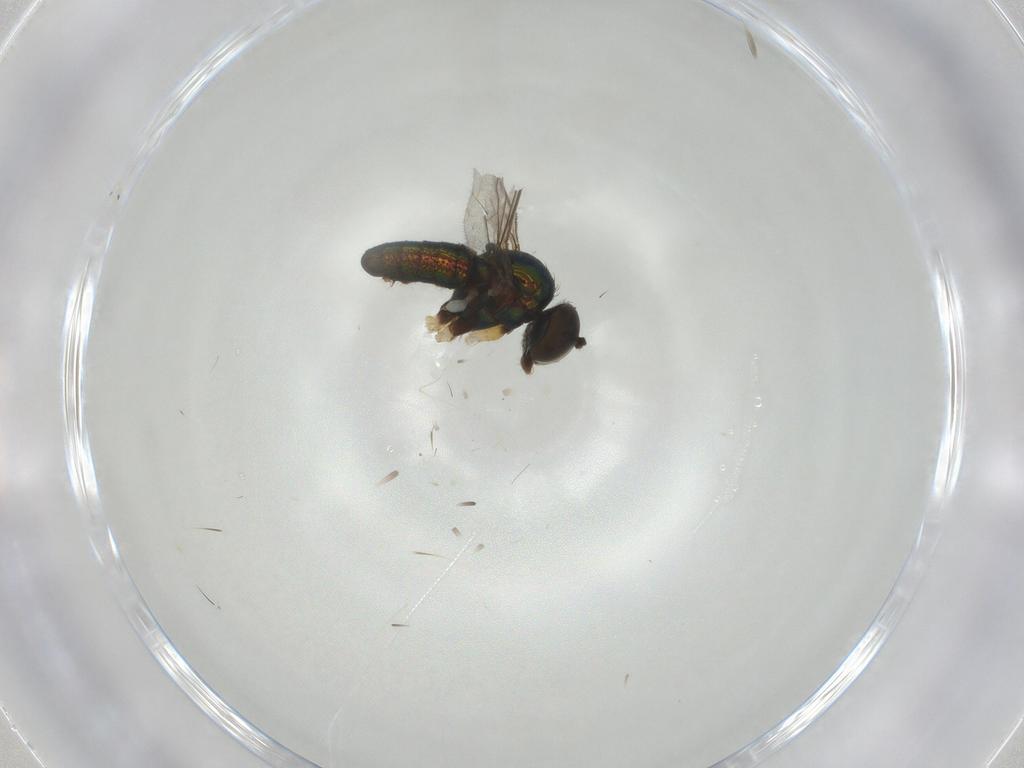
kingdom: Animalia
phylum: Arthropoda
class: Insecta
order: Diptera
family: Dolichopodidae
